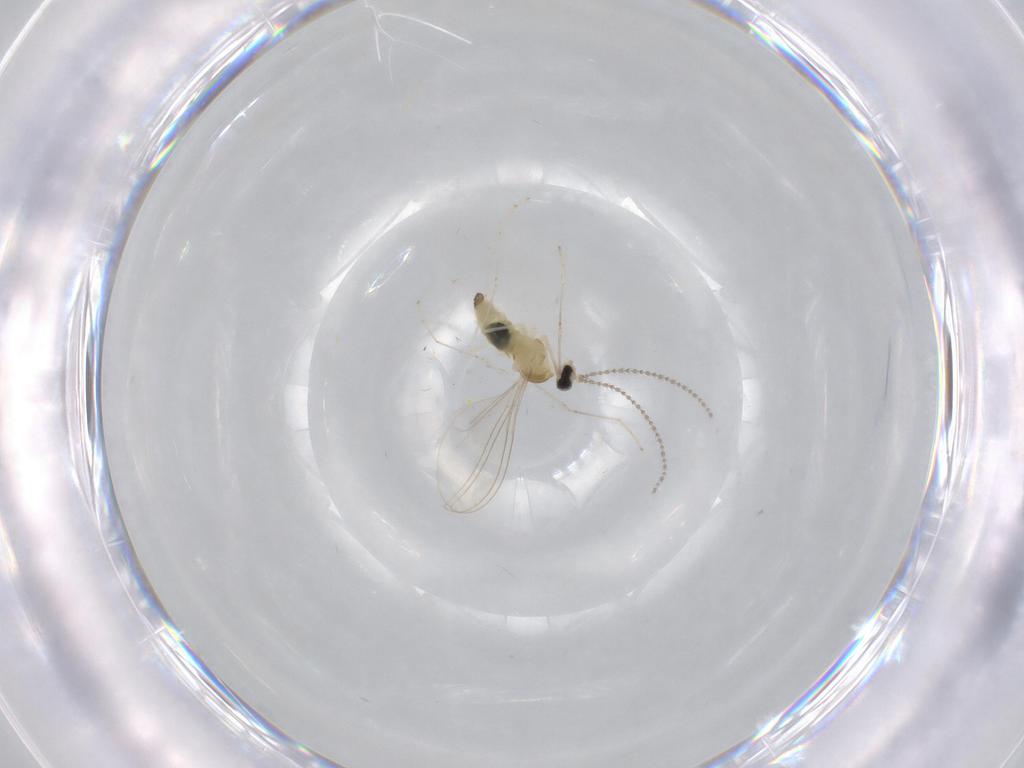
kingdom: Animalia
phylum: Arthropoda
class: Insecta
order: Diptera
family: Cecidomyiidae
